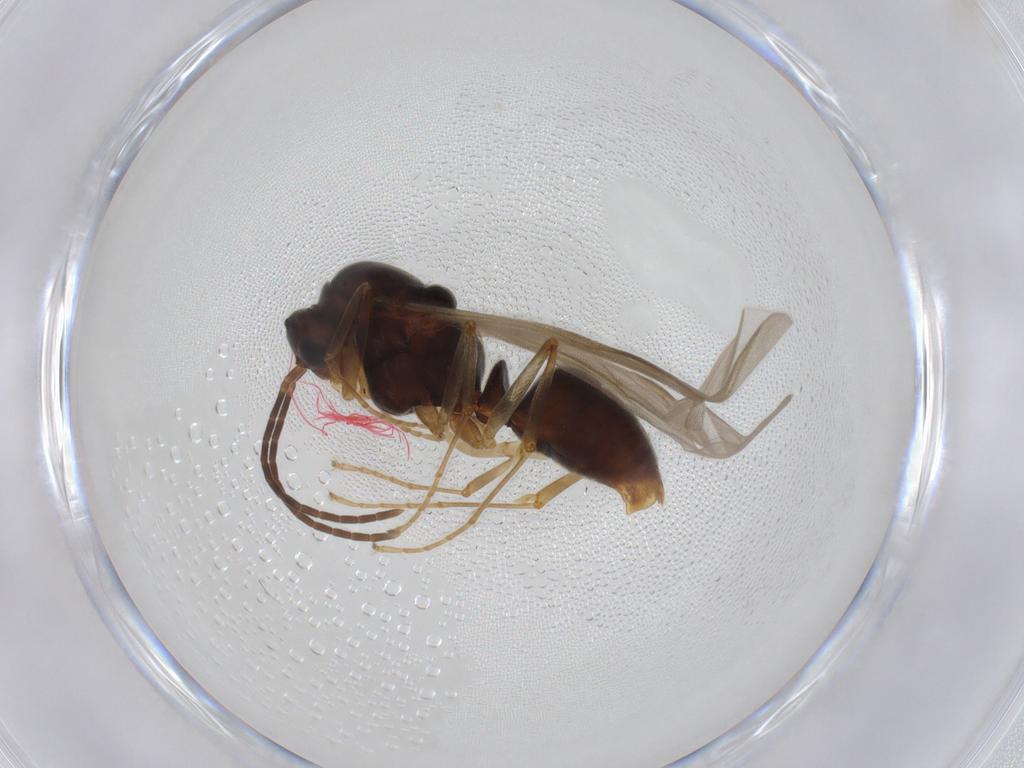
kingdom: Animalia
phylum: Arthropoda
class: Insecta
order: Hymenoptera
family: Formicidae
